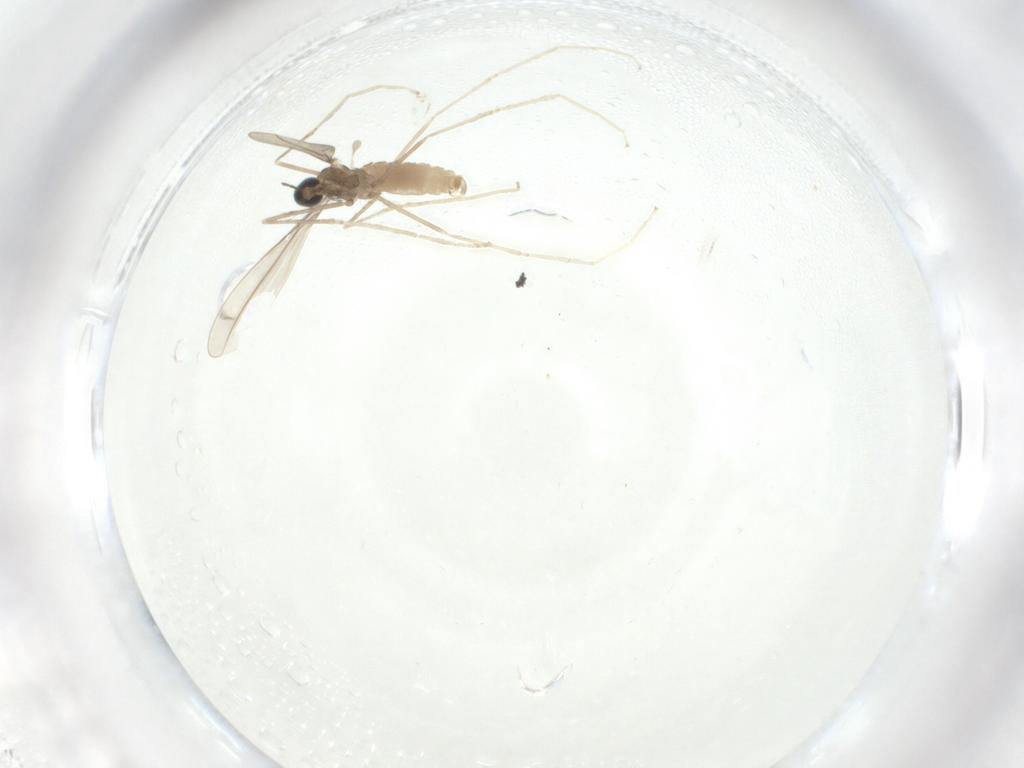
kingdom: Animalia
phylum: Arthropoda
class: Insecta
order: Diptera
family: Cecidomyiidae
